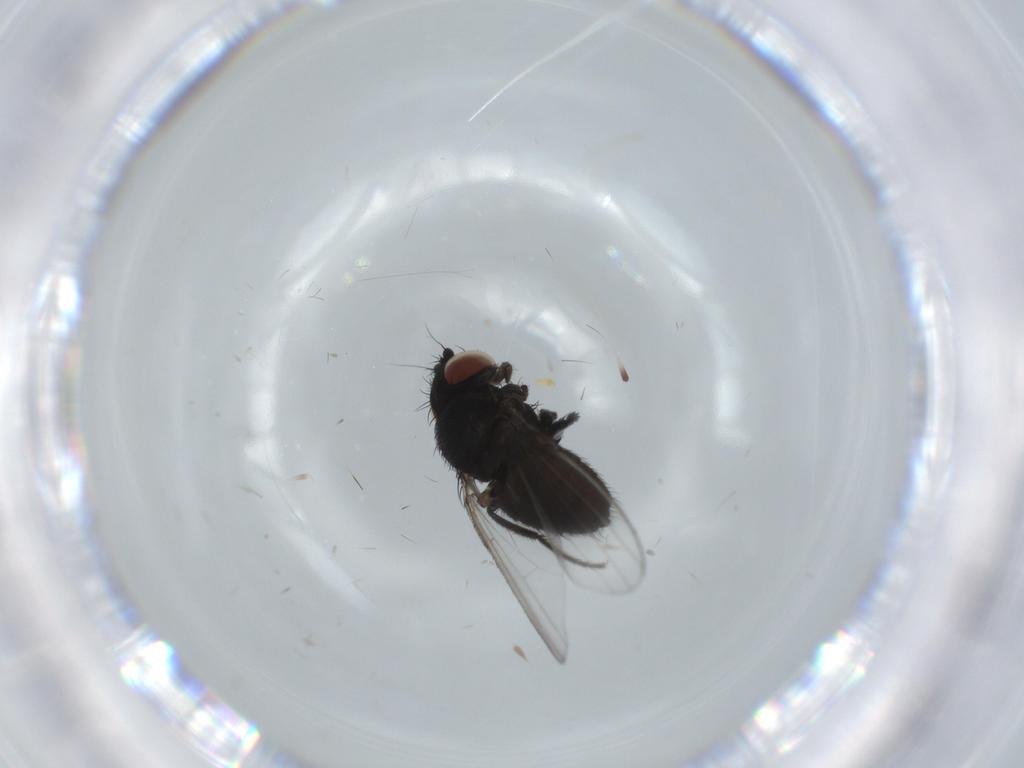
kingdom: Animalia
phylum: Arthropoda
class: Insecta
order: Diptera
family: Milichiidae
